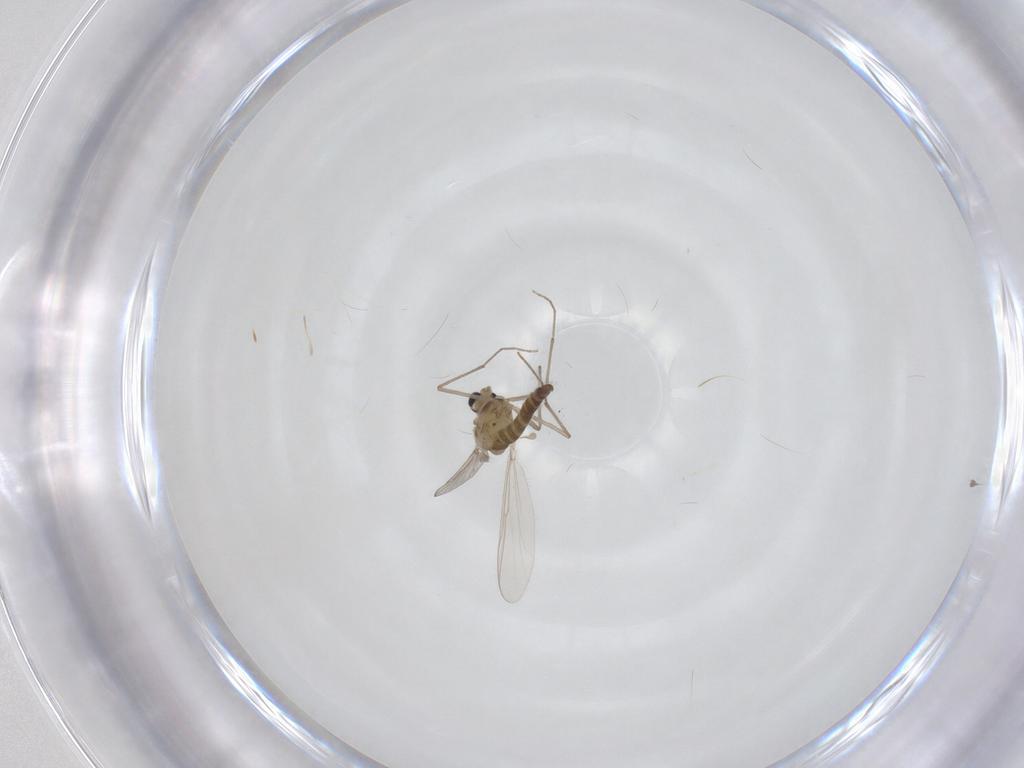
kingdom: Animalia
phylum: Arthropoda
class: Insecta
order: Diptera
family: Chironomidae
